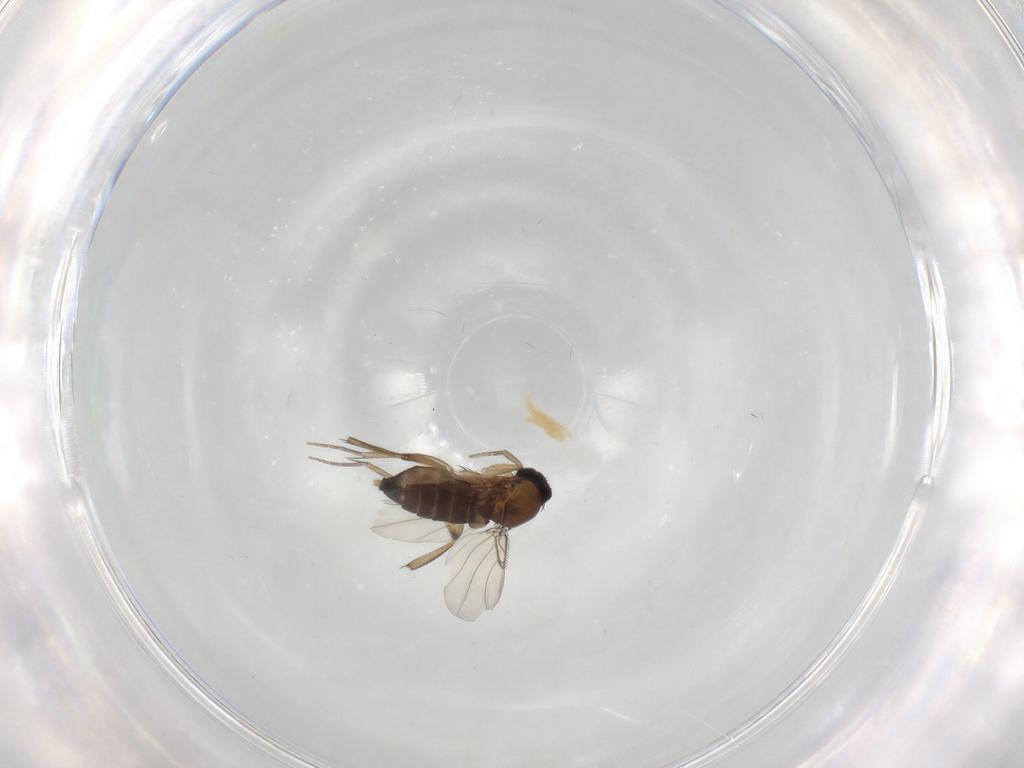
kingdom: Animalia
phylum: Arthropoda
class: Insecta
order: Diptera
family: Phoridae
